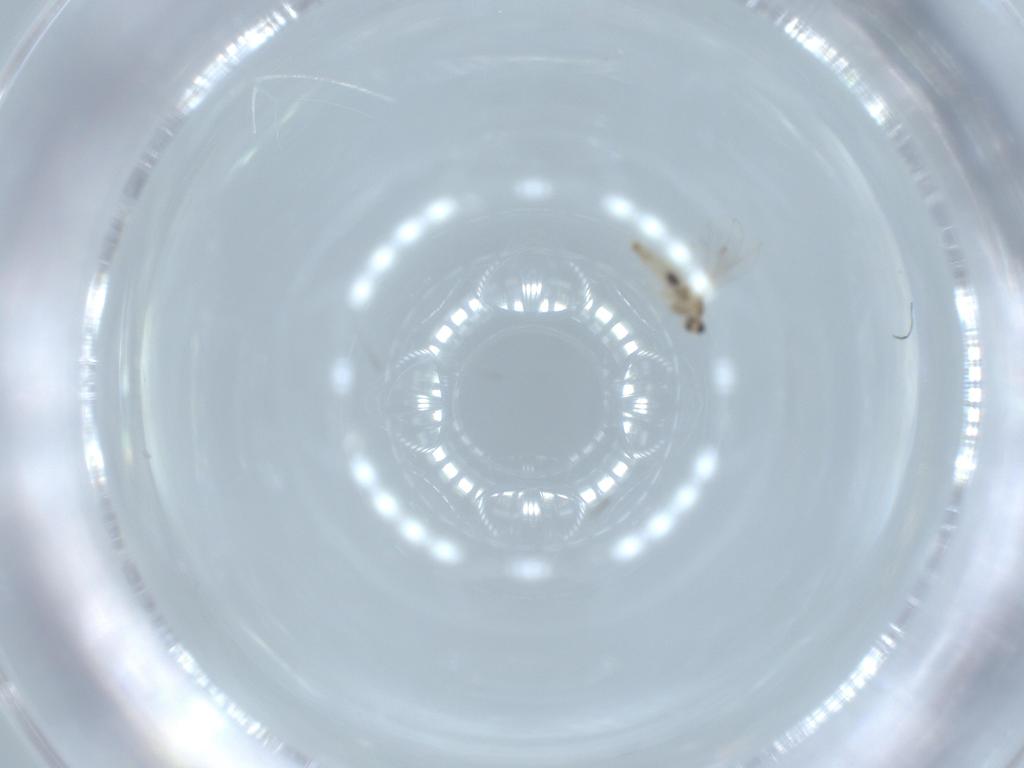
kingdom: Animalia
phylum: Arthropoda
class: Insecta
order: Diptera
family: Cecidomyiidae
